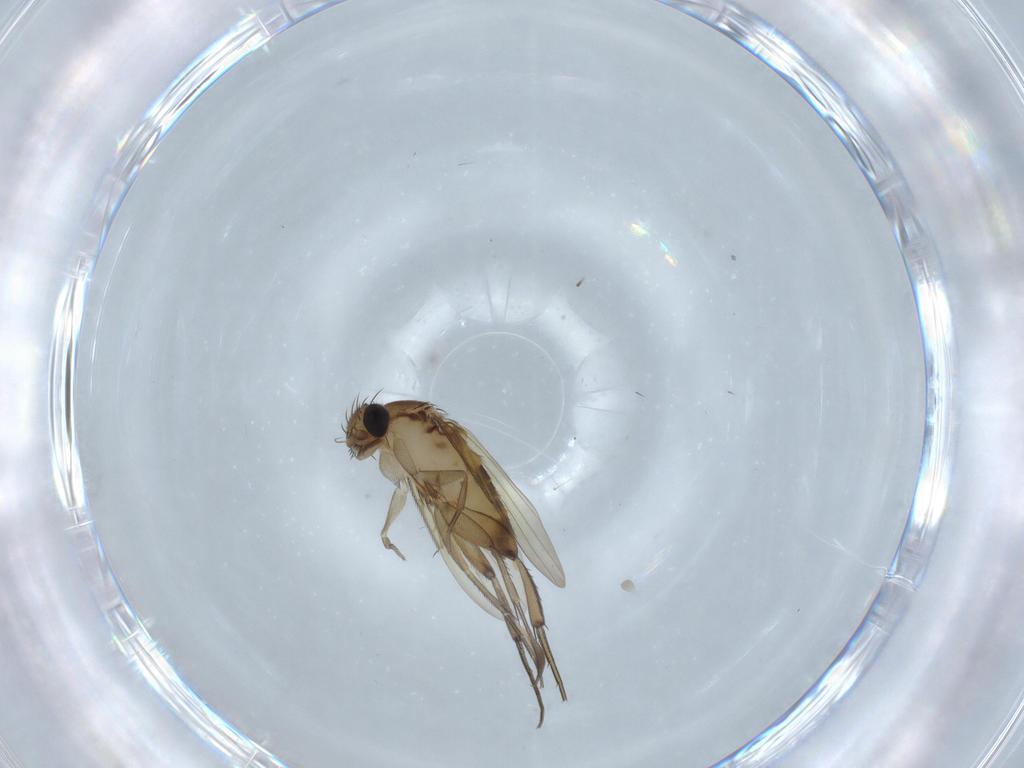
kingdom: Animalia
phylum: Arthropoda
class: Insecta
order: Diptera
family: Phoridae
